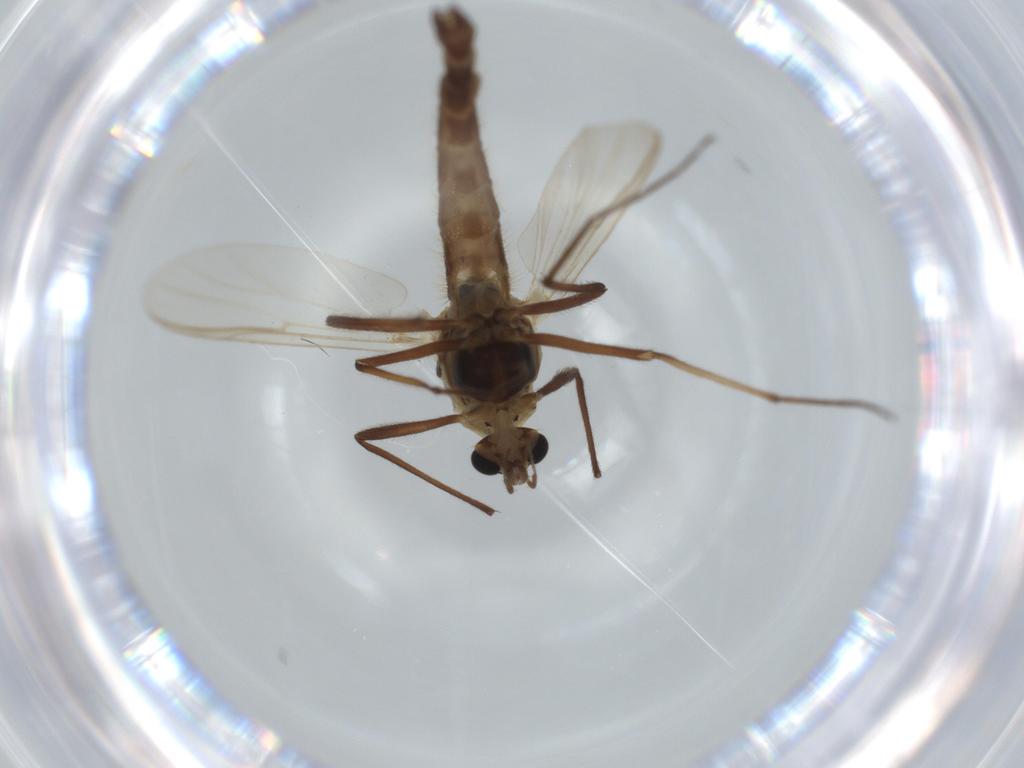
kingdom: Animalia
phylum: Arthropoda
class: Insecta
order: Diptera
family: Empididae
